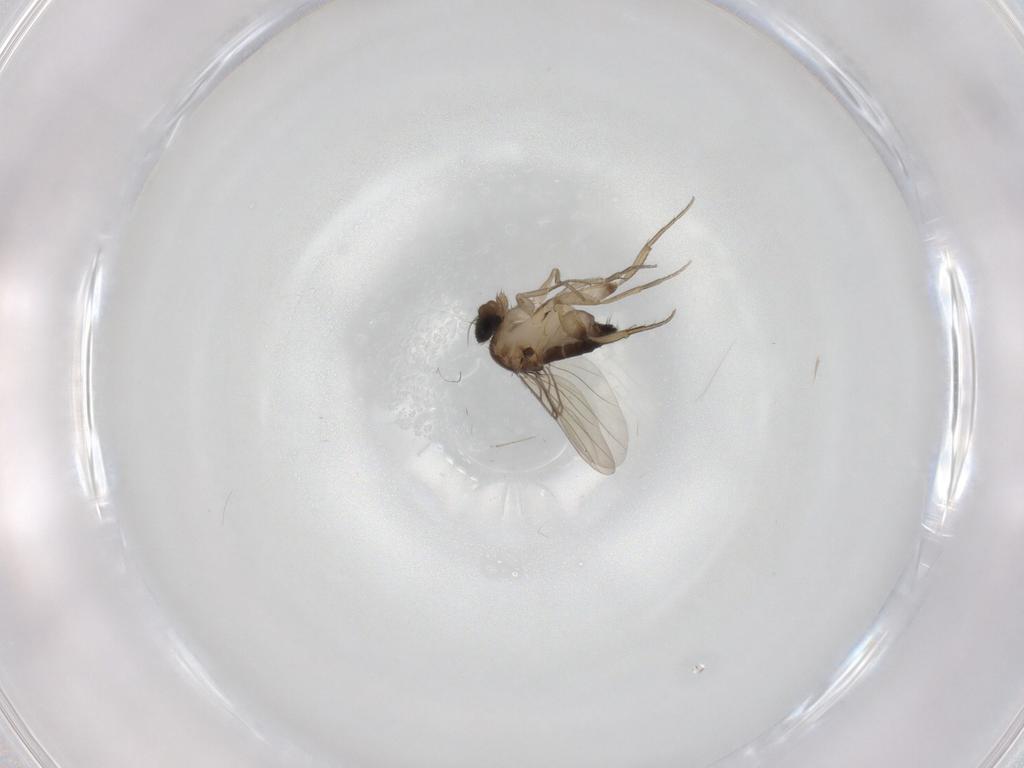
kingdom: Animalia
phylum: Arthropoda
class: Insecta
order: Diptera
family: Phoridae
